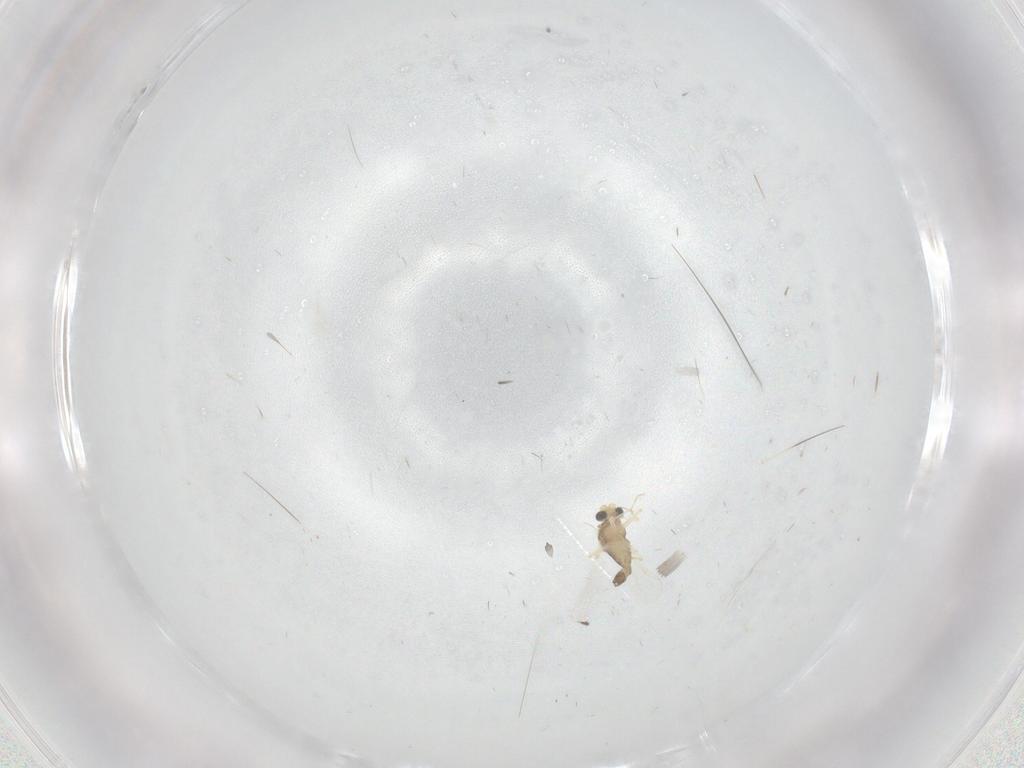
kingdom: Animalia
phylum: Arthropoda
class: Insecta
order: Diptera
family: Chironomidae
